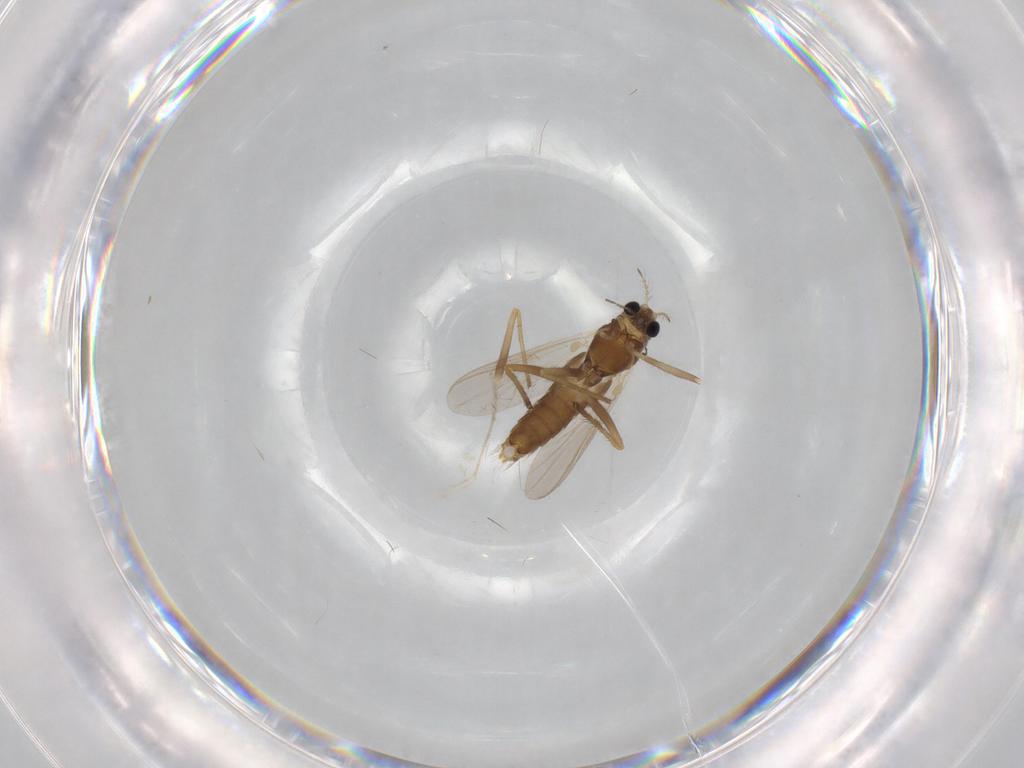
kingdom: Animalia
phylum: Arthropoda
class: Insecta
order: Diptera
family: Chironomidae
